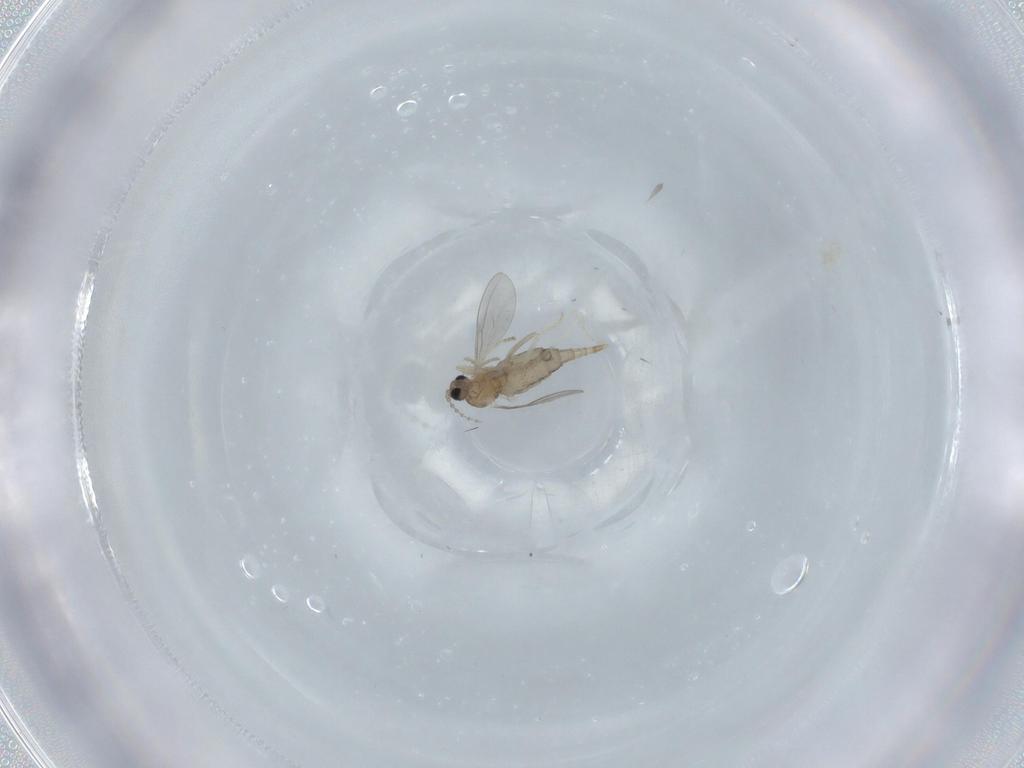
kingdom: Animalia
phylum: Arthropoda
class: Insecta
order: Diptera
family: Cecidomyiidae
